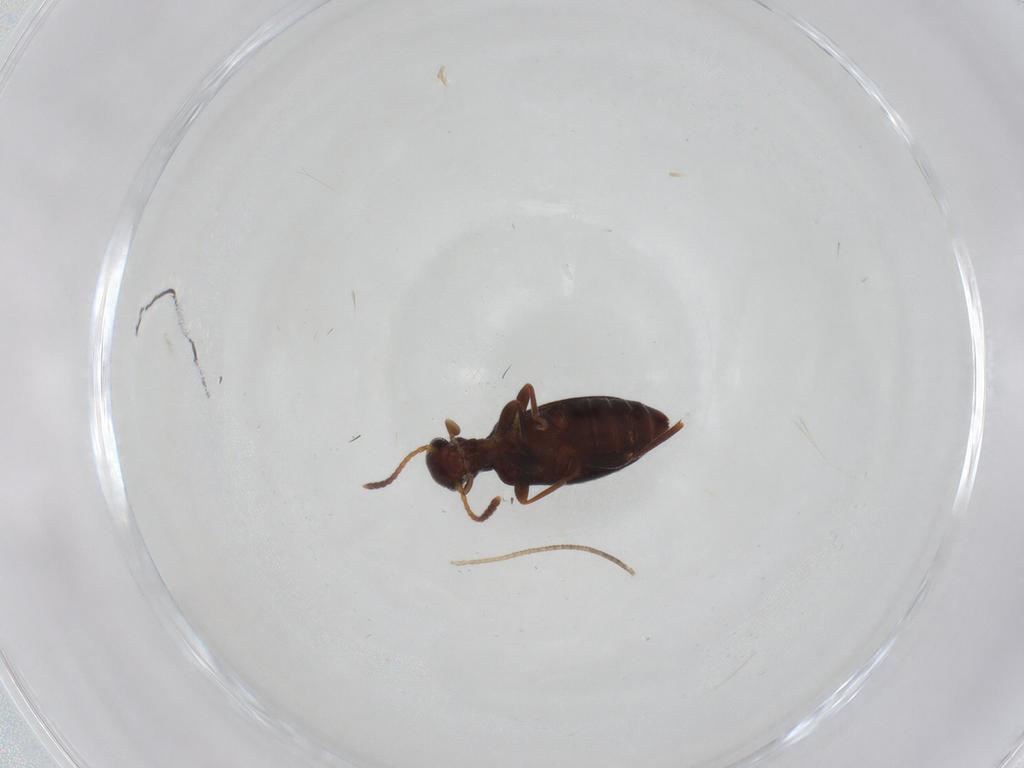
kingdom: Animalia
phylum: Arthropoda
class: Insecta
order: Coleoptera
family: Anthicidae
